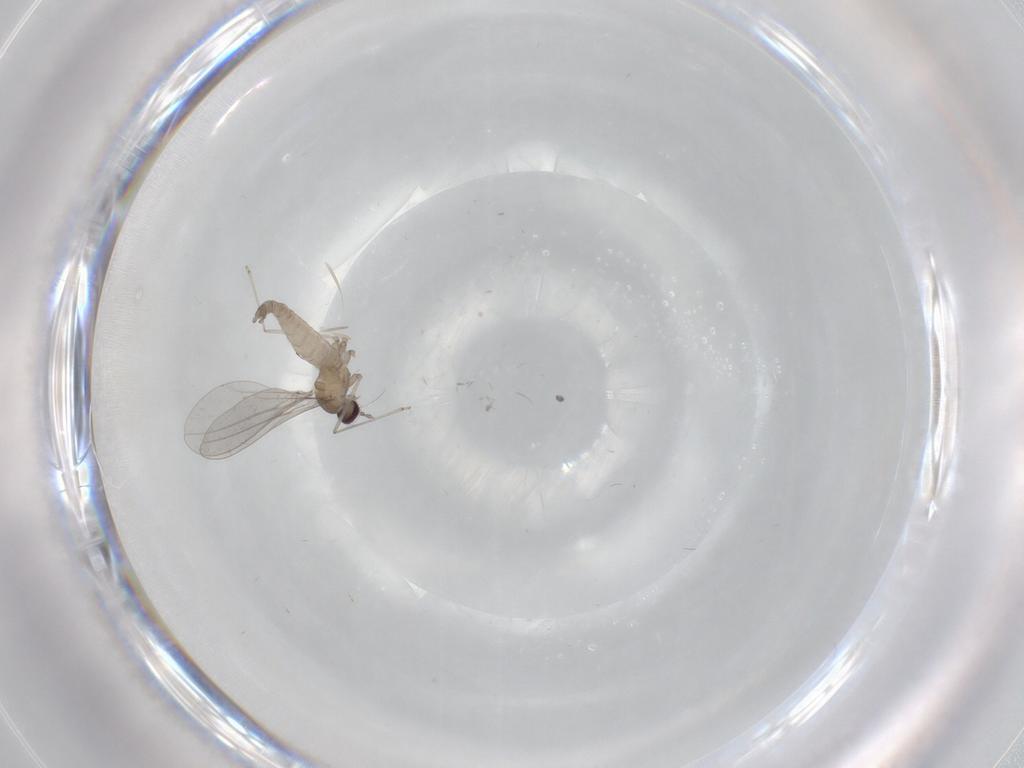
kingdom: Animalia
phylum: Arthropoda
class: Insecta
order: Diptera
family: Cecidomyiidae
